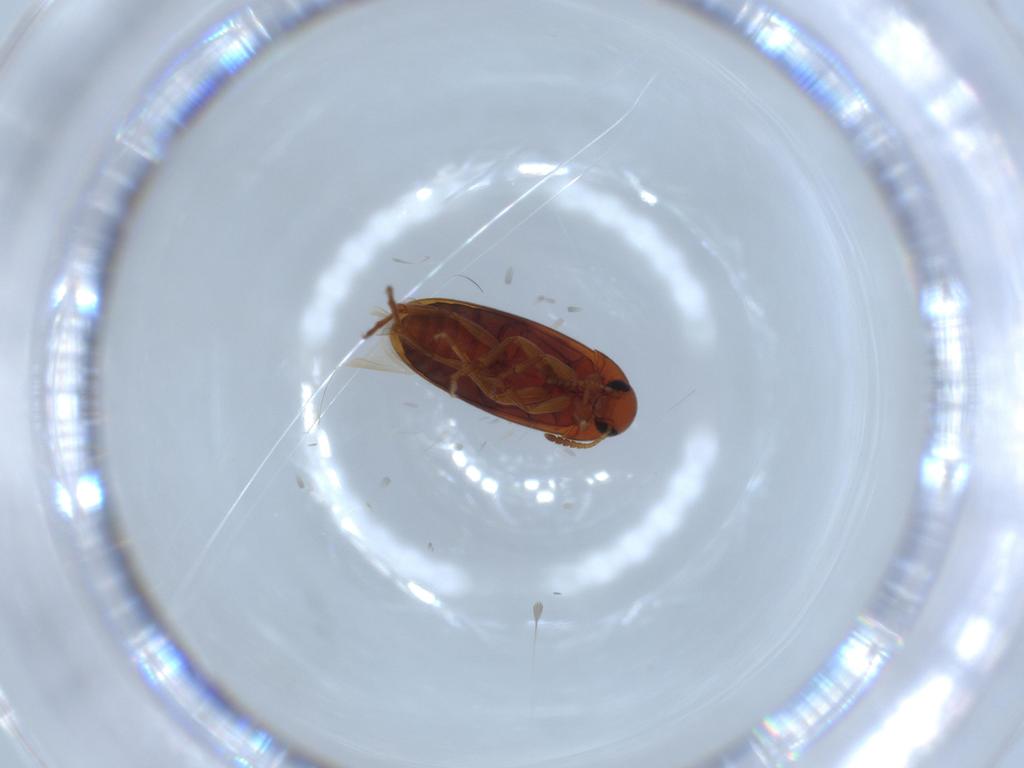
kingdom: Animalia
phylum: Arthropoda
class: Insecta
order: Coleoptera
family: Scraptiidae
